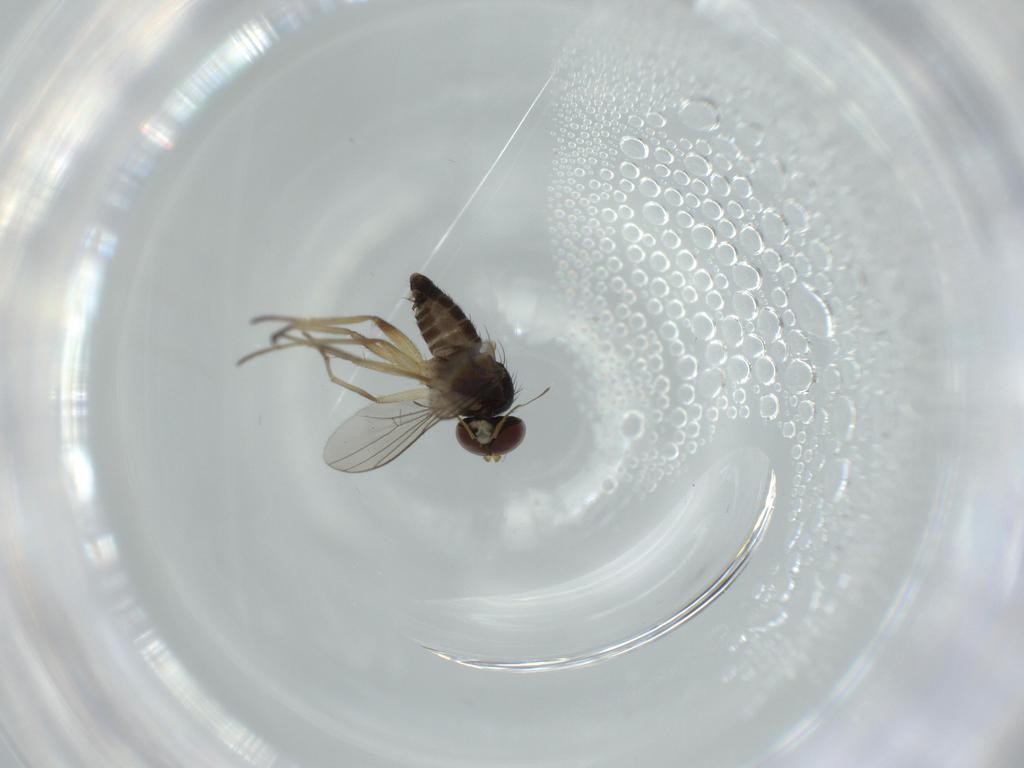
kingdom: Animalia
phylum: Arthropoda
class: Insecta
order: Diptera
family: Dolichopodidae
